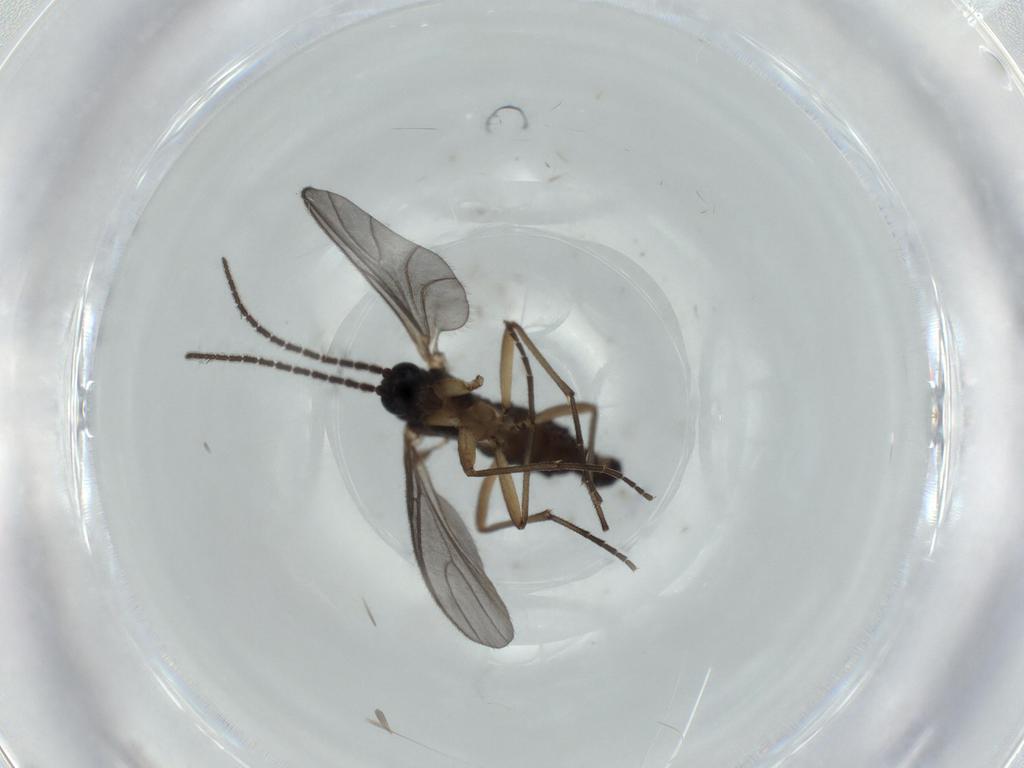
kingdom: Animalia
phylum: Arthropoda
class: Insecta
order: Diptera
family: Sciaridae
